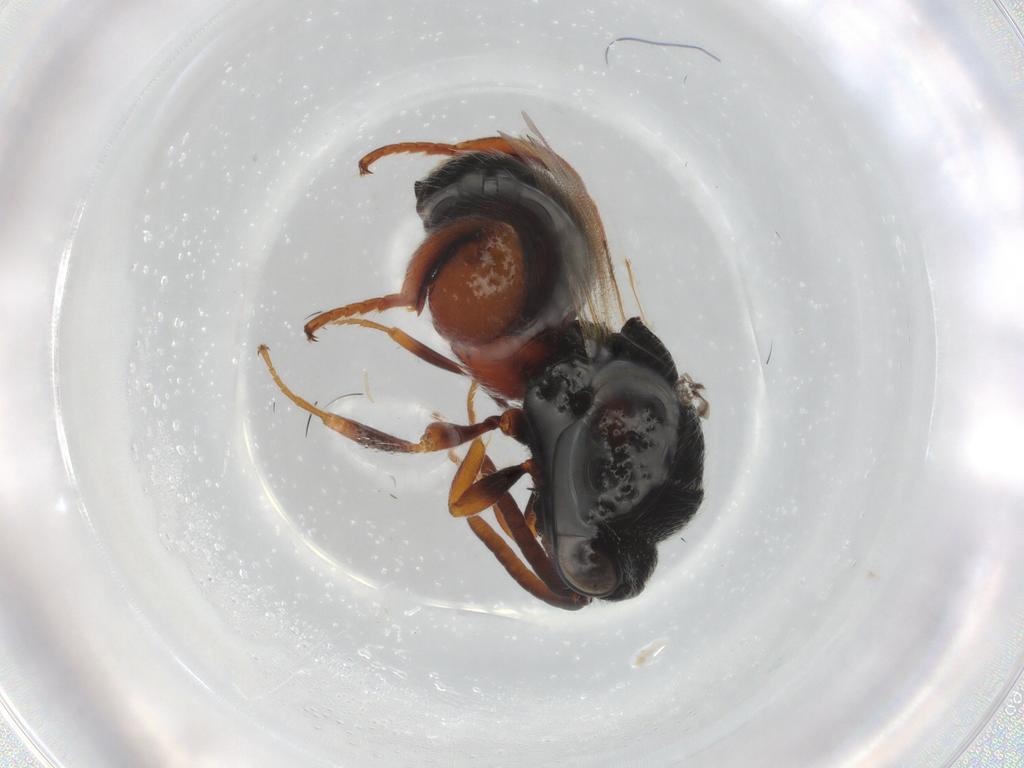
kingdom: Animalia
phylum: Arthropoda
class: Insecta
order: Hymenoptera
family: Chalcididae
